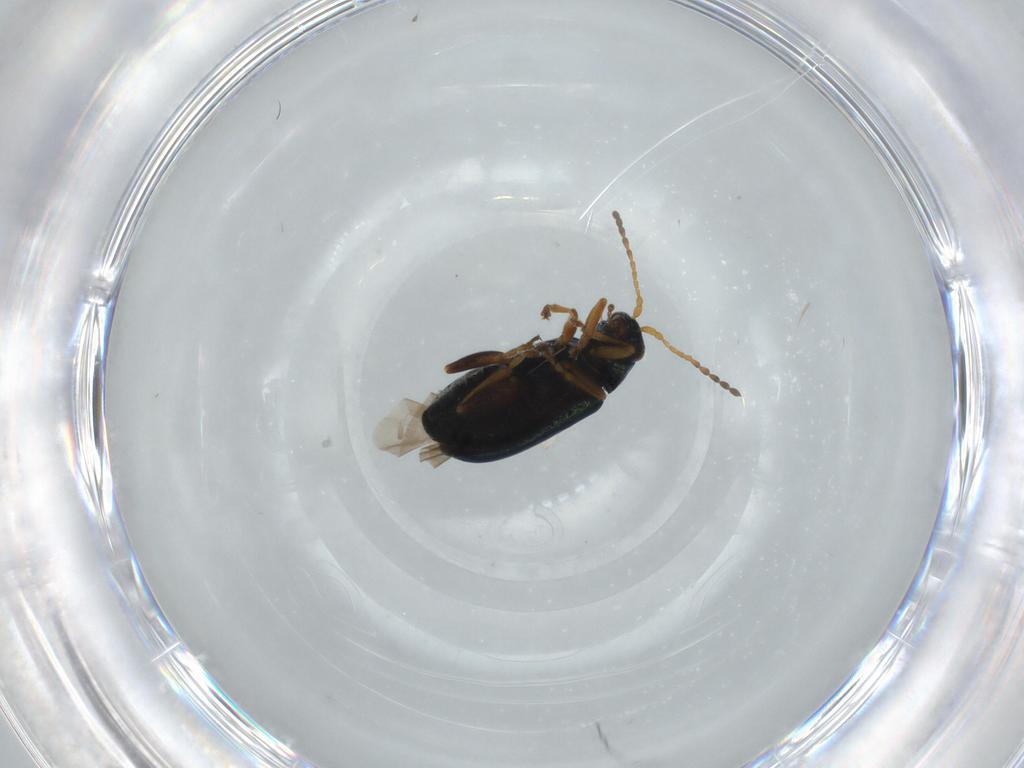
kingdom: Animalia
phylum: Arthropoda
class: Insecta
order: Coleoptera
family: Chrysomelidae
